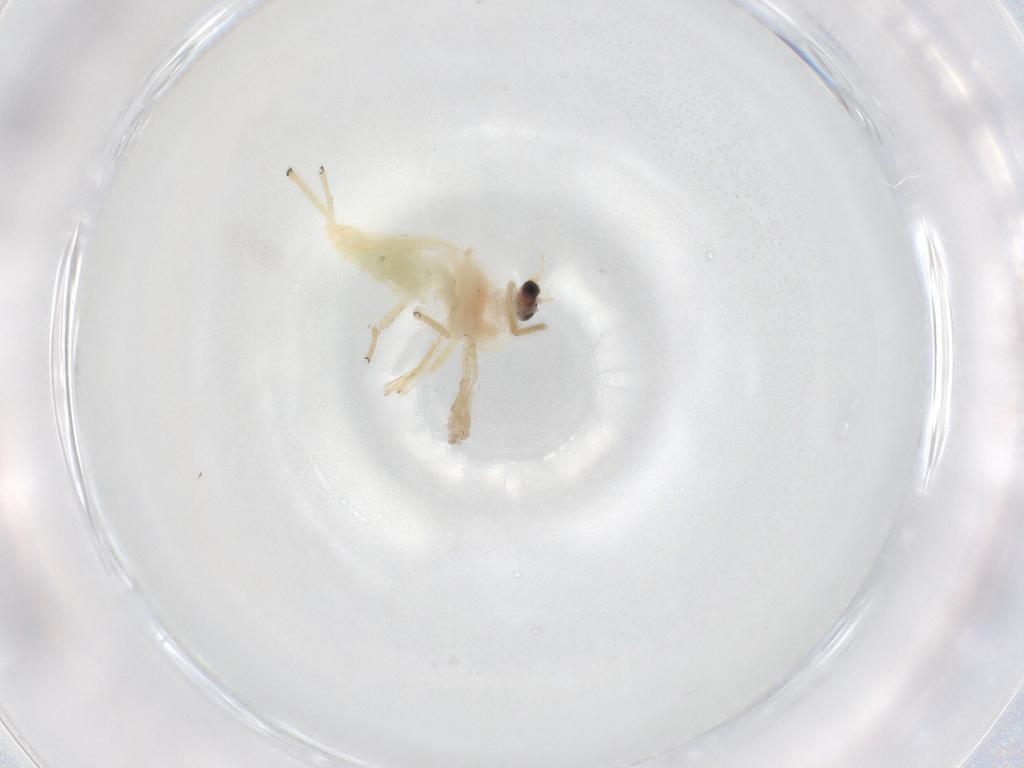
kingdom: Animalia
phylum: Arthropoda
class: Insecta
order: Diptera
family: Chironomidae
